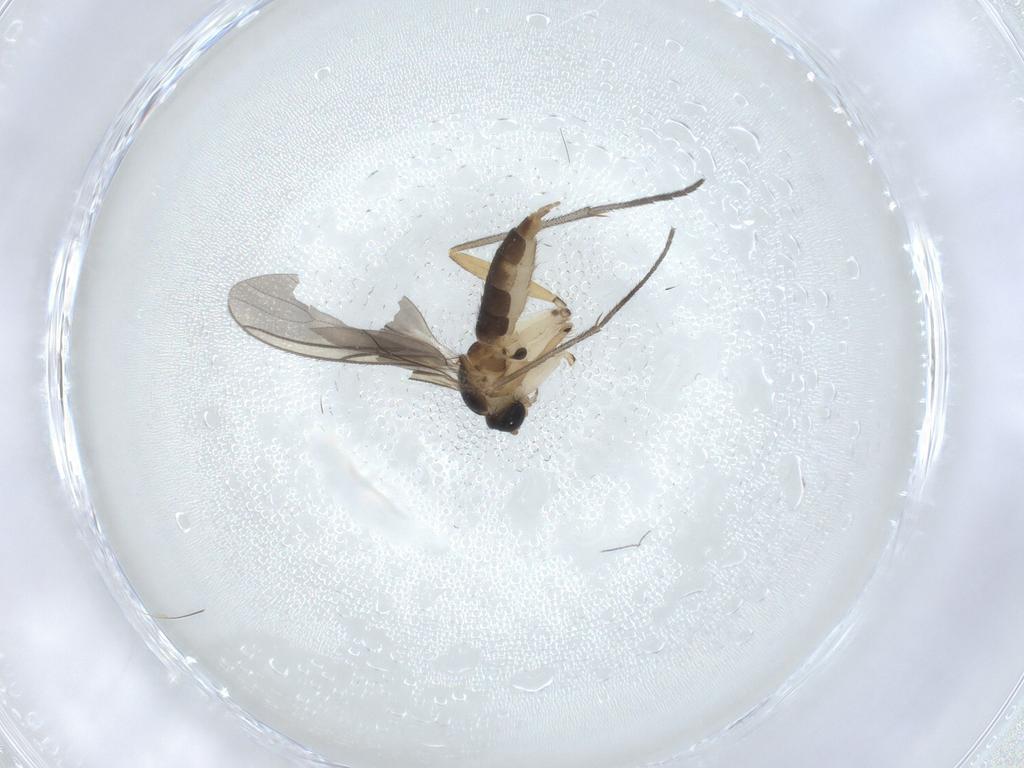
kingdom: Animalia
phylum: Arthropoda
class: Insecta
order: Diptera
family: Sciaridae
